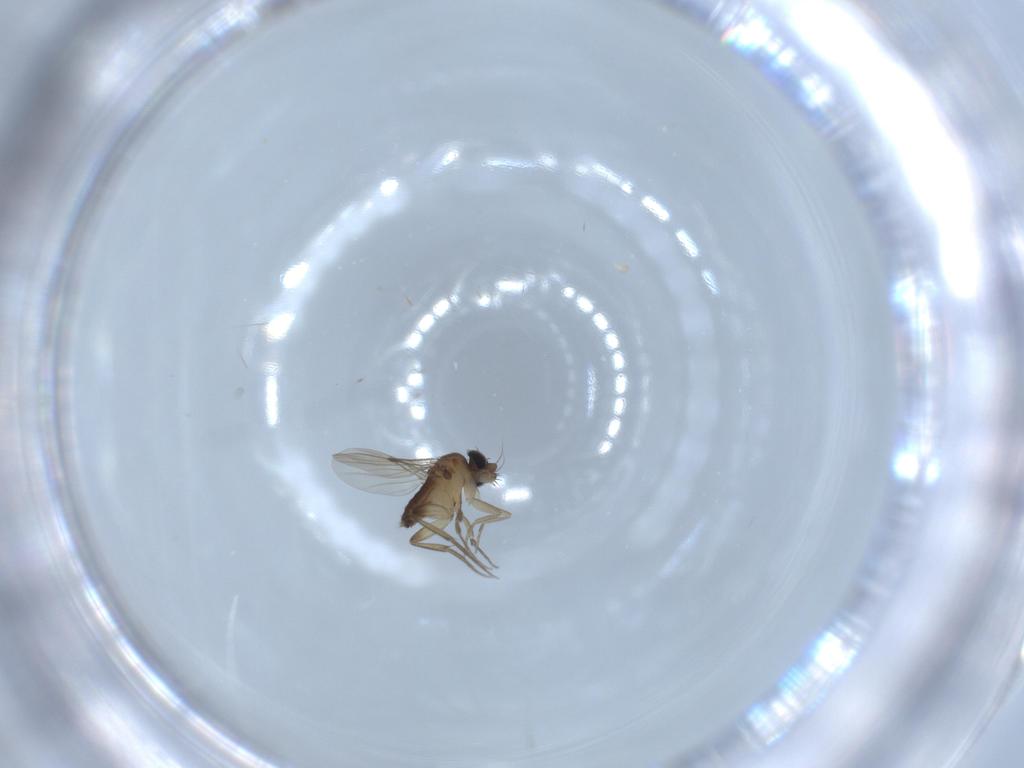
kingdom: Animalia
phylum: Arthropoda
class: Insecta
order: Diptera
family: Phoridae
